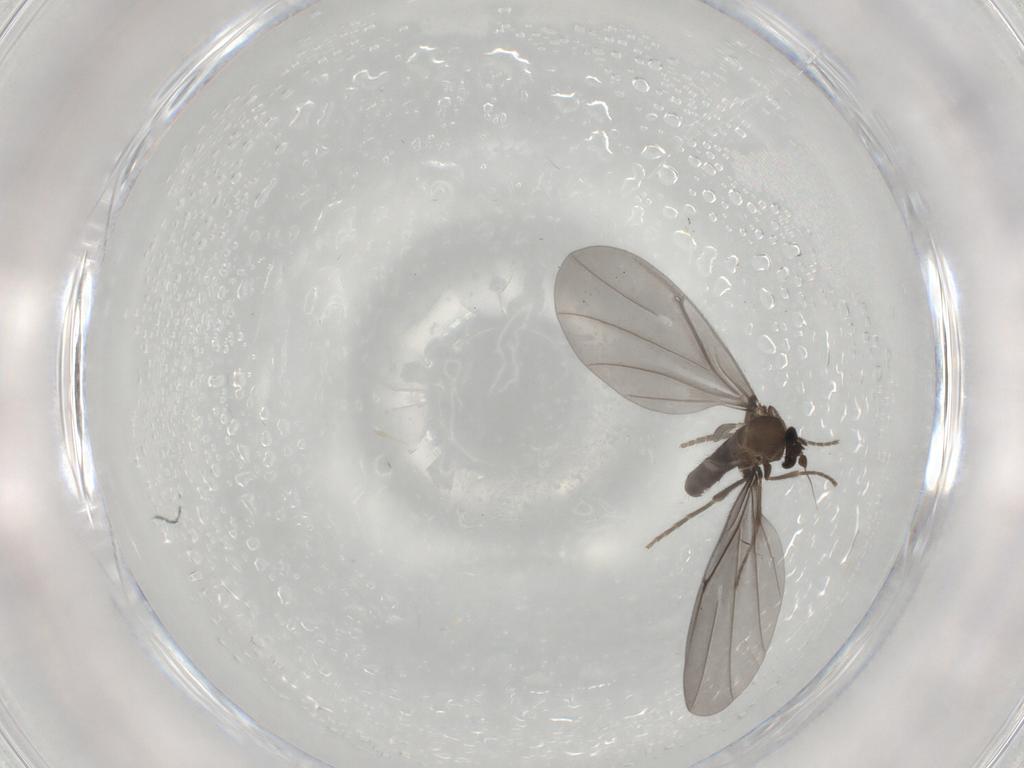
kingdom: Animalia
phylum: Arthropoda
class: Insecta
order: Diptera
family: Phoridae
